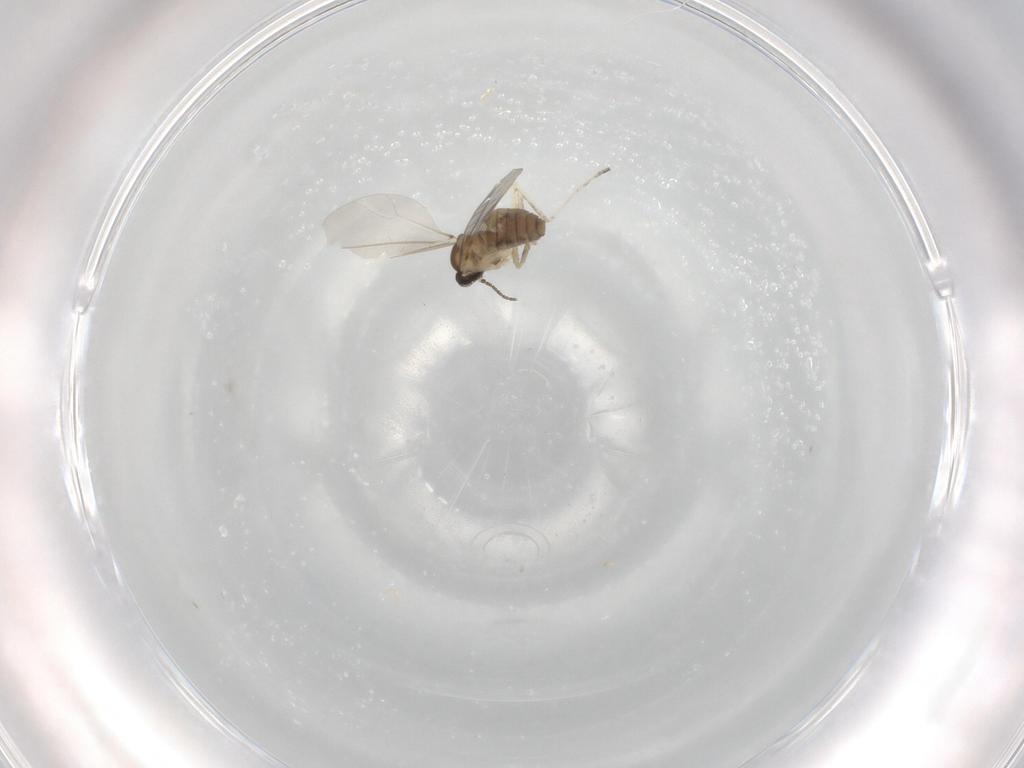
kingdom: Animalia
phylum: Arthropoda
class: Insecta
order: Diptera
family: Cecidomyiidae
